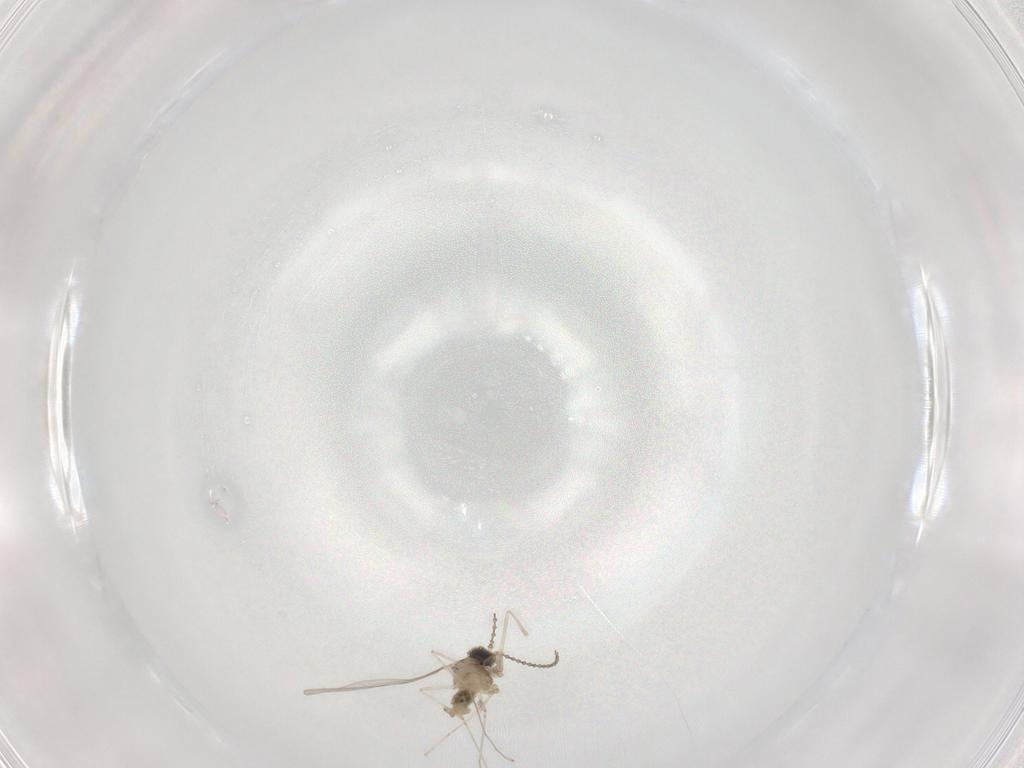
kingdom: Animalia
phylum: Arthropoda
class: Insecta
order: Diptera
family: Cecidomyiidae
